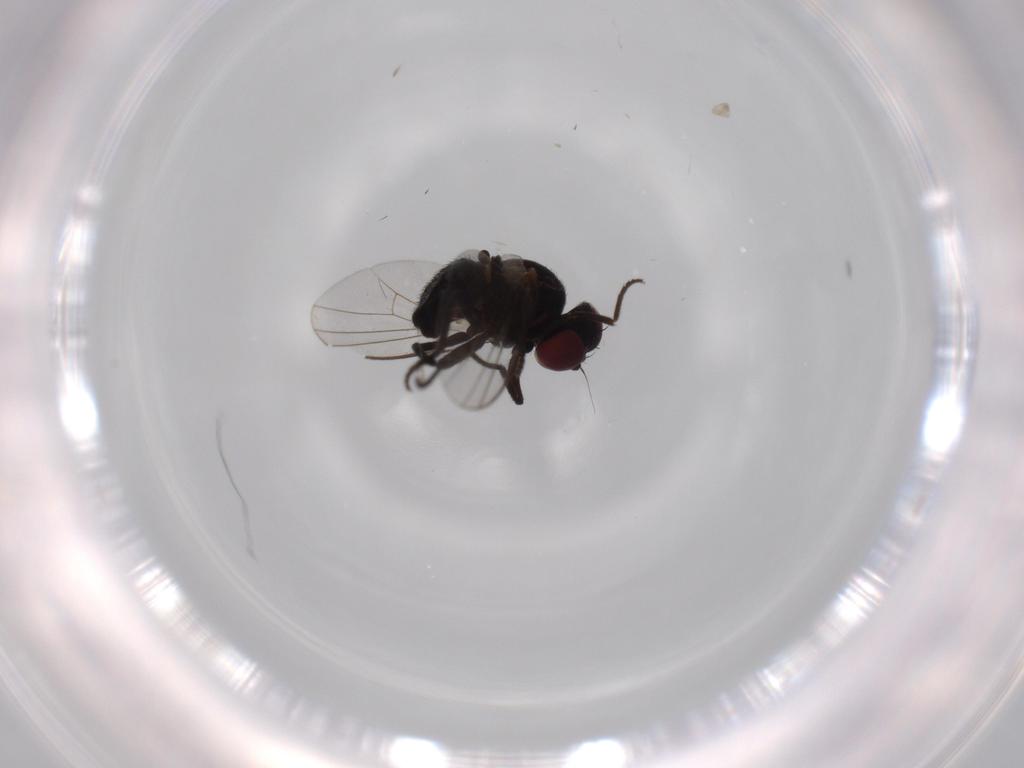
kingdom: Animalia
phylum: Arthropoda
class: Insecta
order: Diptera
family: Agromyzidae
